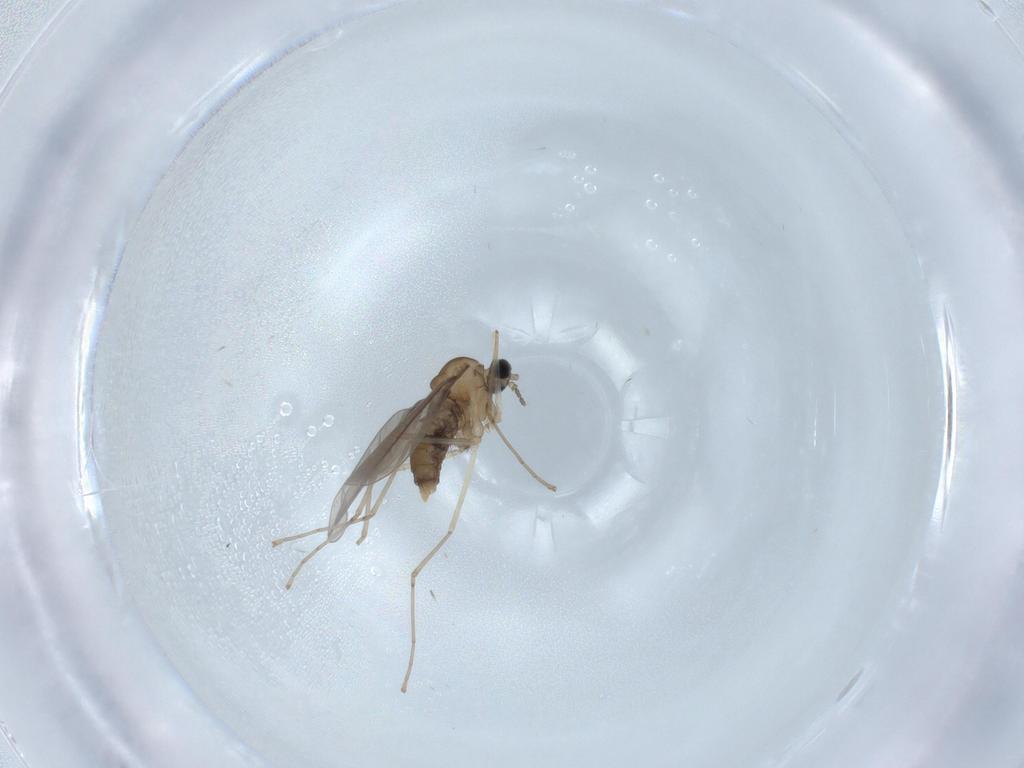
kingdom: Animalia
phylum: Arthropoda
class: Insecta
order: Diptera
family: Cecidomyiidae
